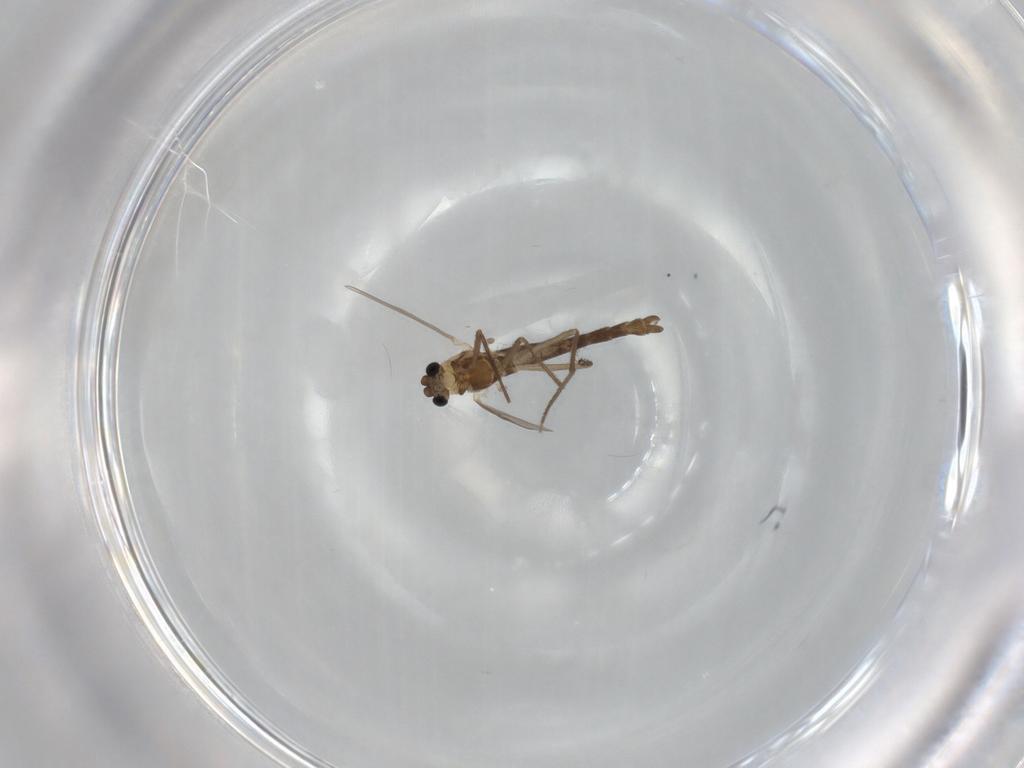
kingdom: Animalia
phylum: Arthropoda
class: Insecta
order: Diptera
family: Chironomidae
